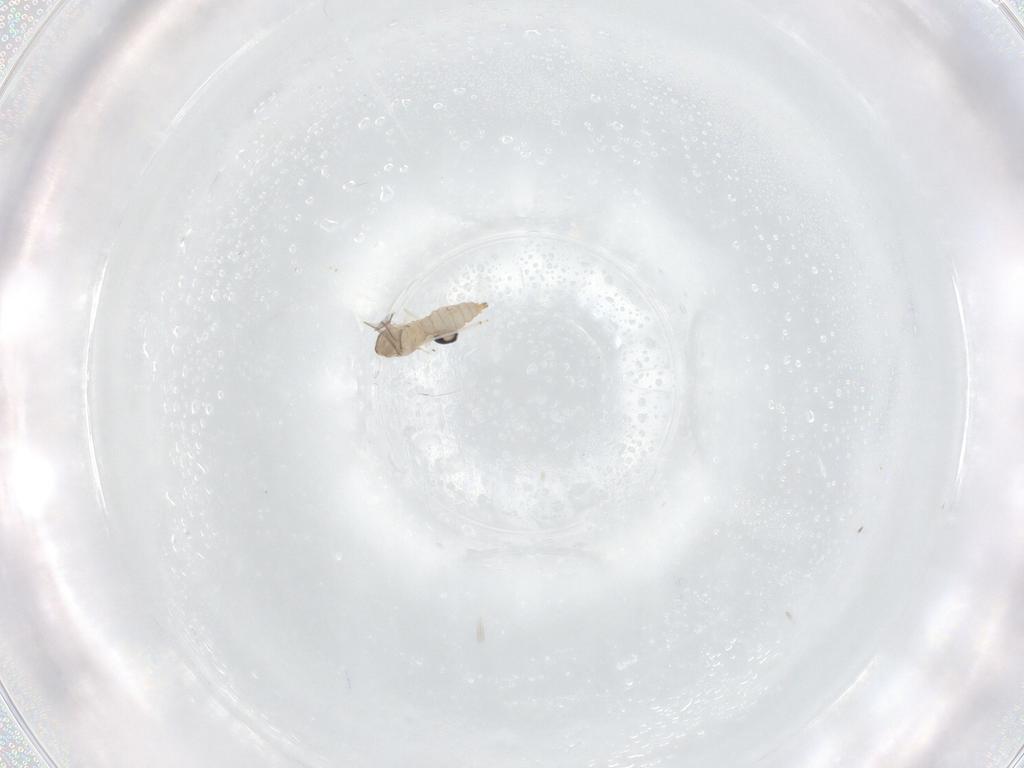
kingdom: Animalia
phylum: Arthropoda
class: Insecta
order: Diptera
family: Cecidomyiidae
